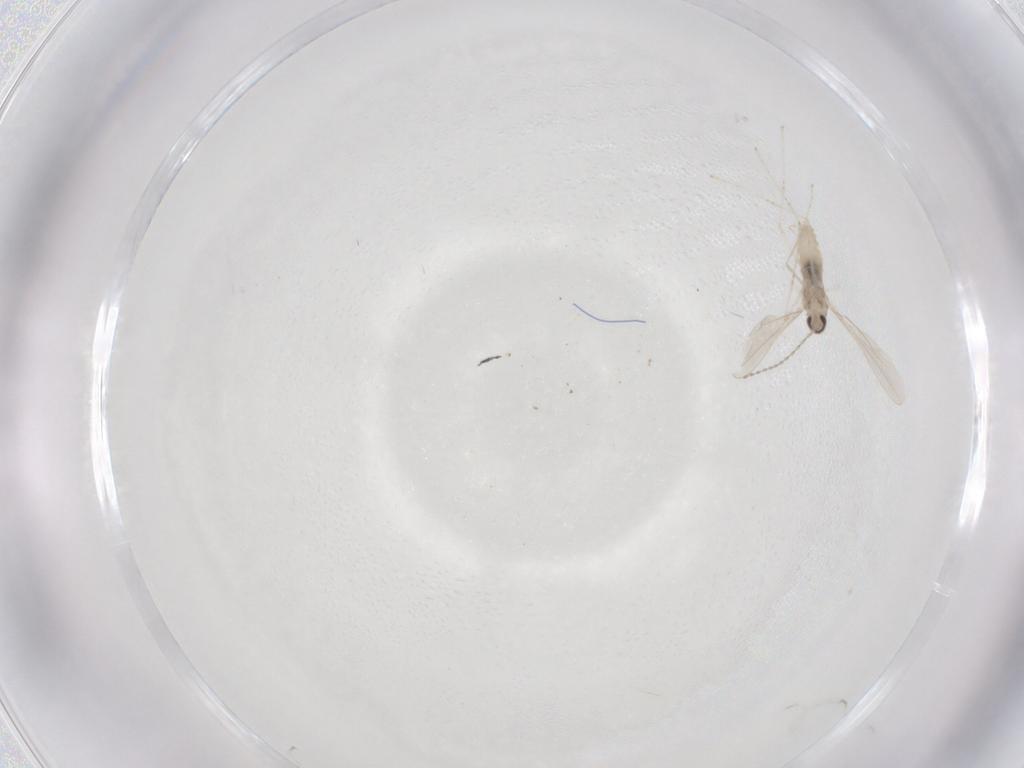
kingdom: Animalia
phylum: Arthropoda
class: Insecta
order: Diptera
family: Cecidomyiidae
